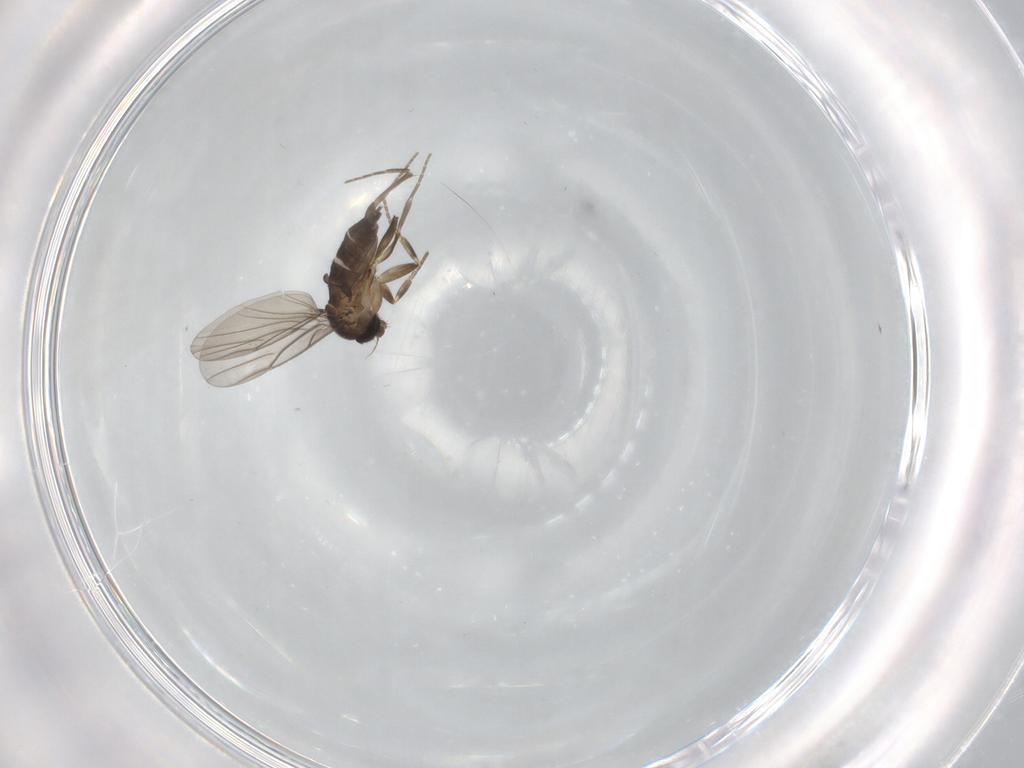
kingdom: Animalia
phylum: Arthropoda
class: Insecta
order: Diptera
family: Phoridae
